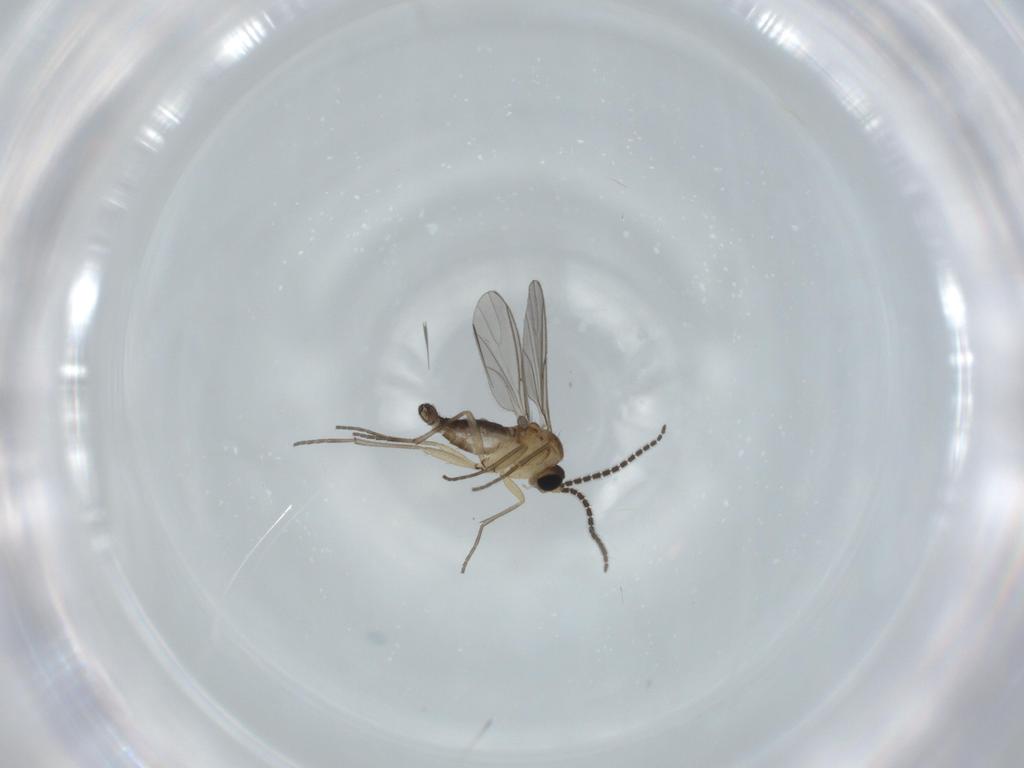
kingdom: Animalia
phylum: Arthropoda
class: Insecta
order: Diptera
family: Sciaridae
